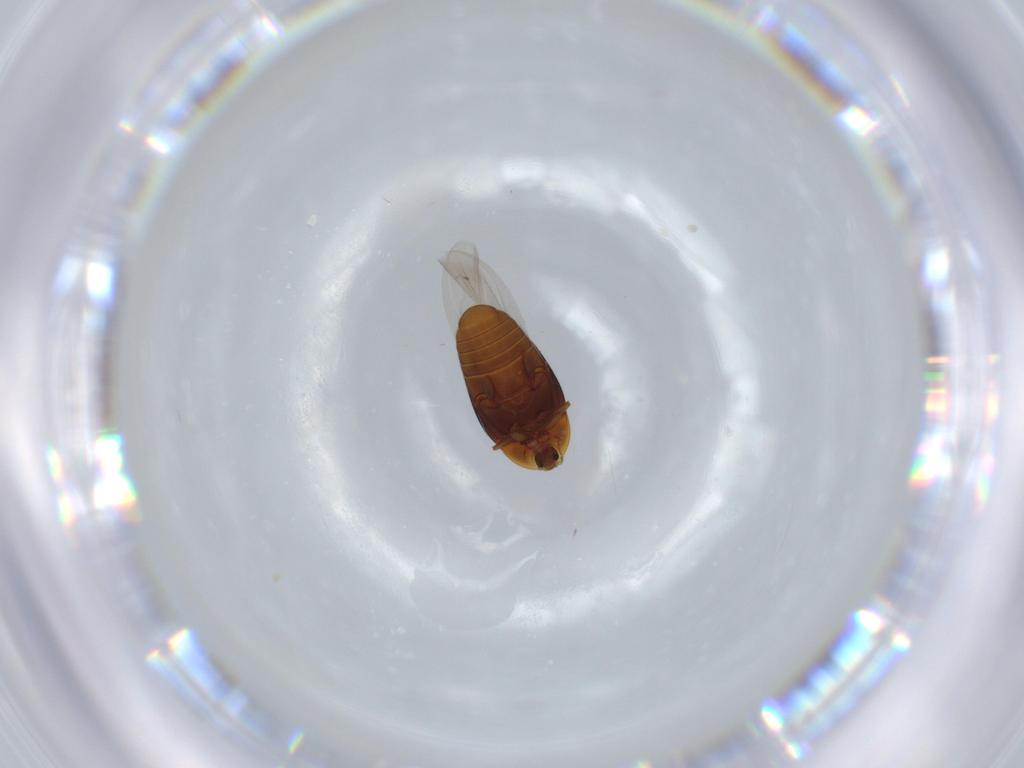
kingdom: Animalia
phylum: Arthropoda
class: Insecta
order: Coleoptera
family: Corylophidae
